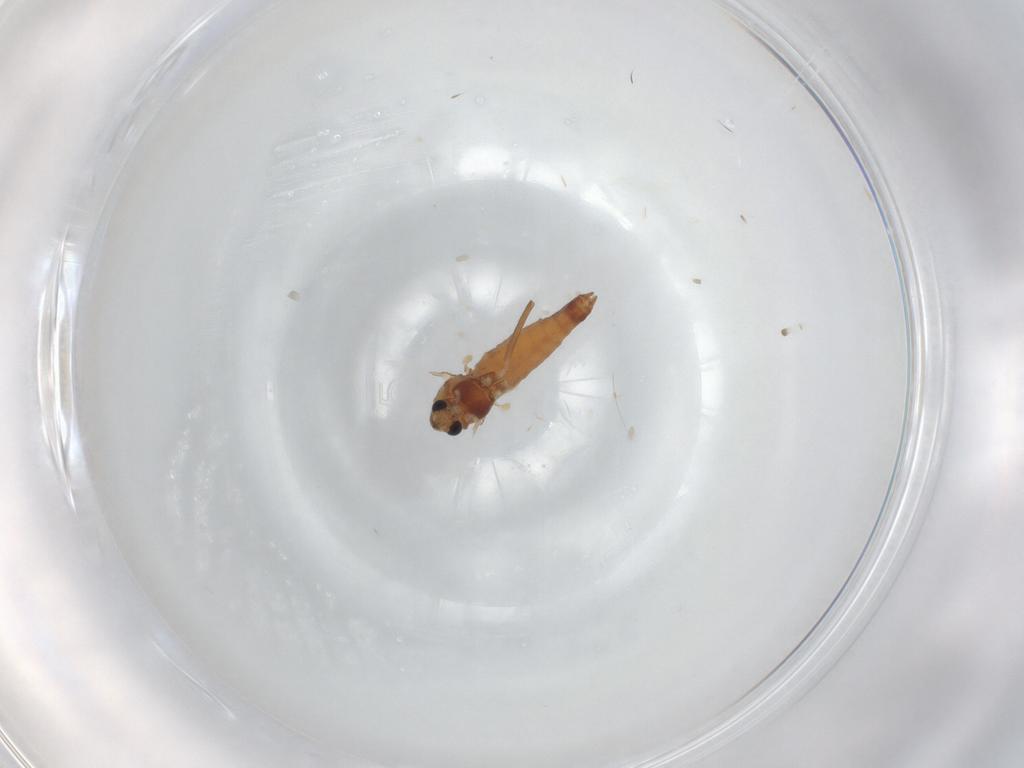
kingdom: Animalia
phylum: Arthropoda
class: Insecta
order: Diptera
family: Chironomidae
